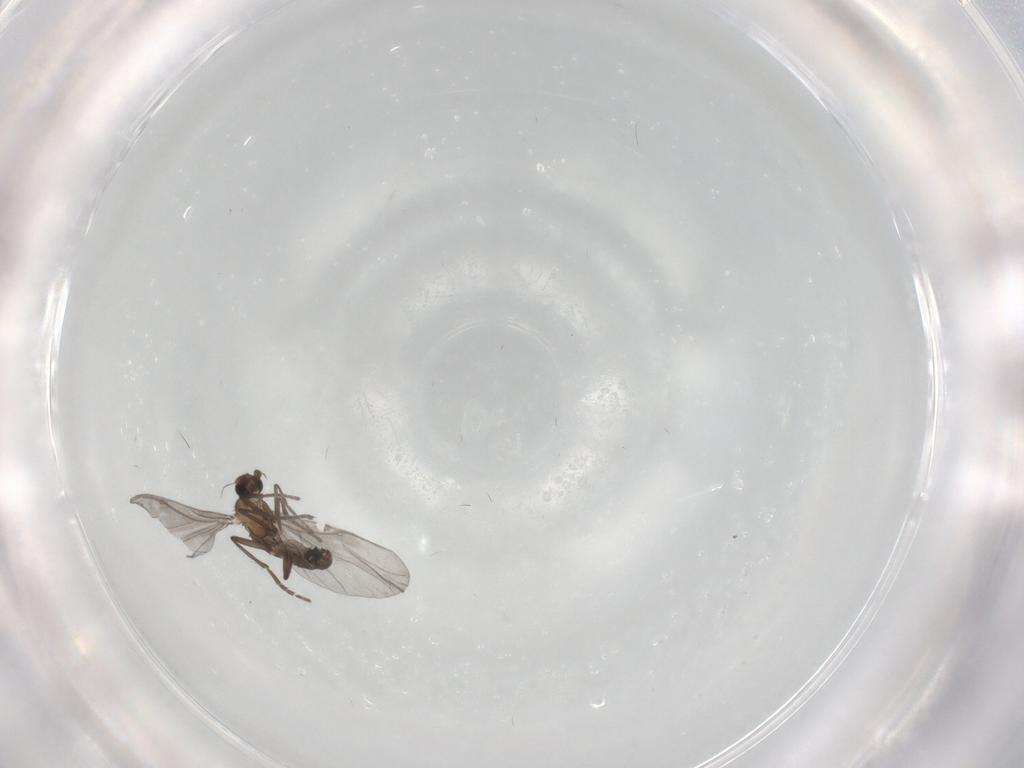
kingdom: Animalia
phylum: Arthropoda
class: Insecta
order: Diptera
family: Chironomidae
